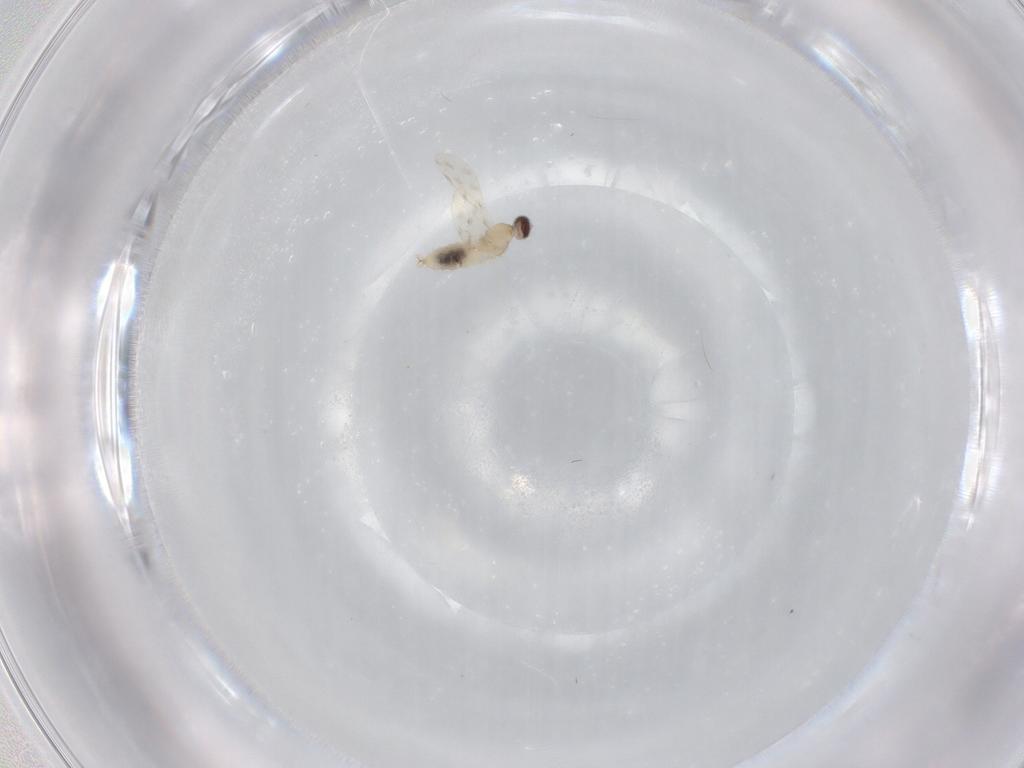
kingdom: Animalia
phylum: Arthropoda
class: Insecta
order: Diptera
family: Cecidomyiidae
